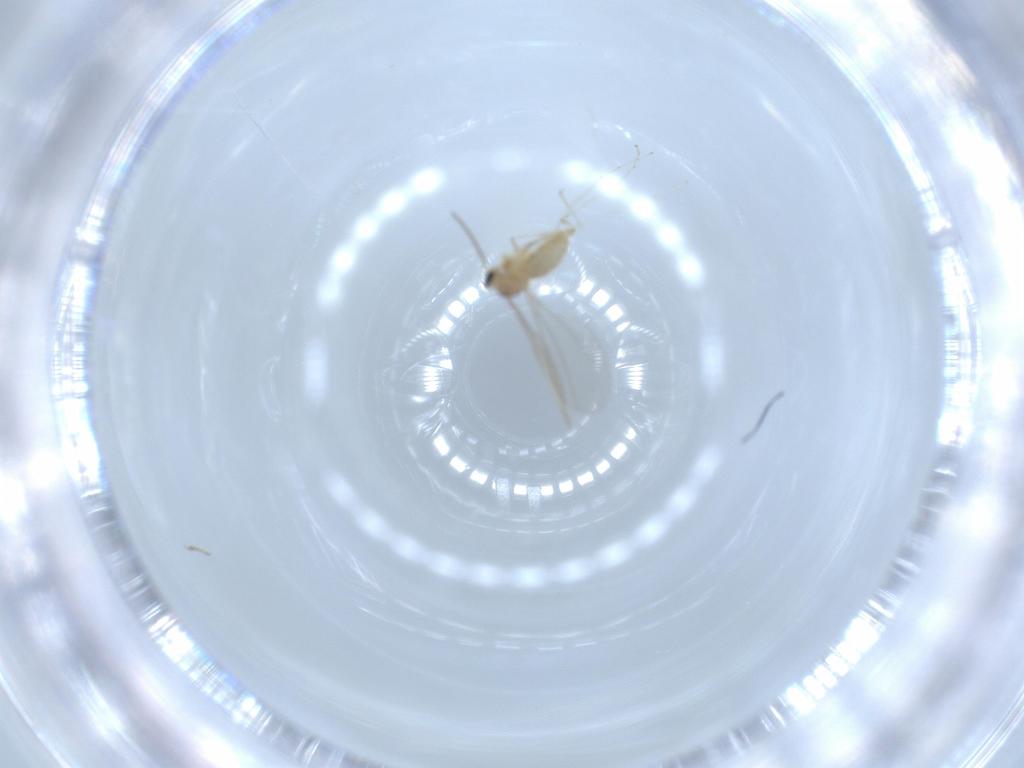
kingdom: Animalia
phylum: Arthropoda
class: Insecta
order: Diptera
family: Cecidomyiidae
